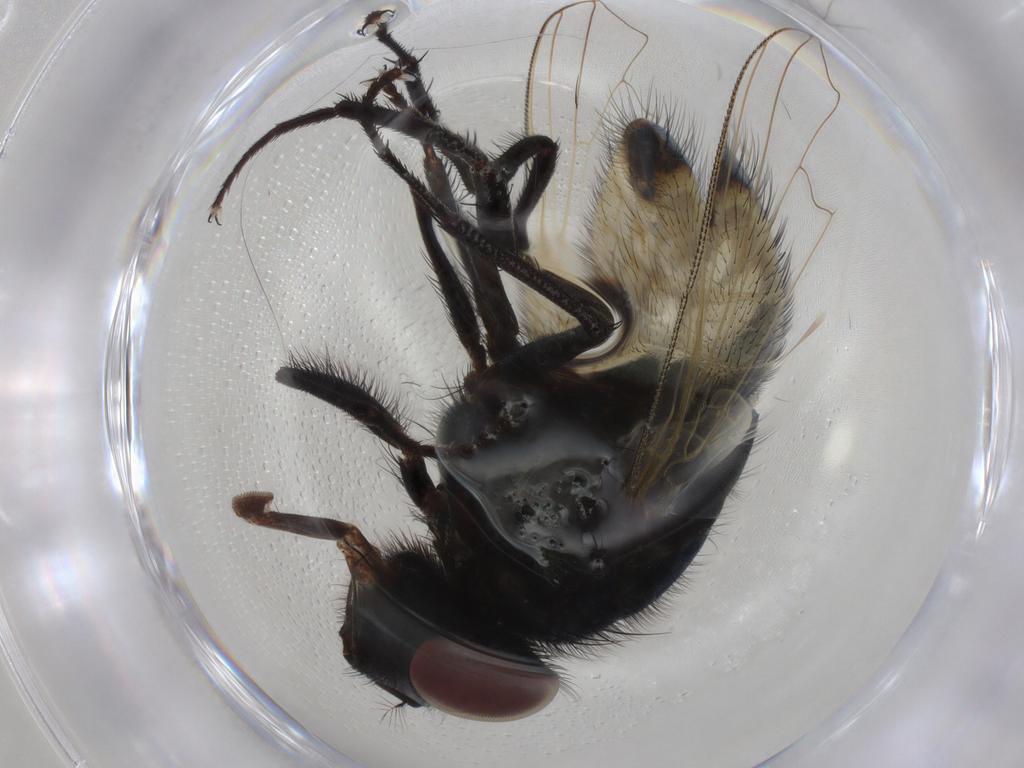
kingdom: Animalia
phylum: Arthropoda
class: Insecta
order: Diptera
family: Muscidae
